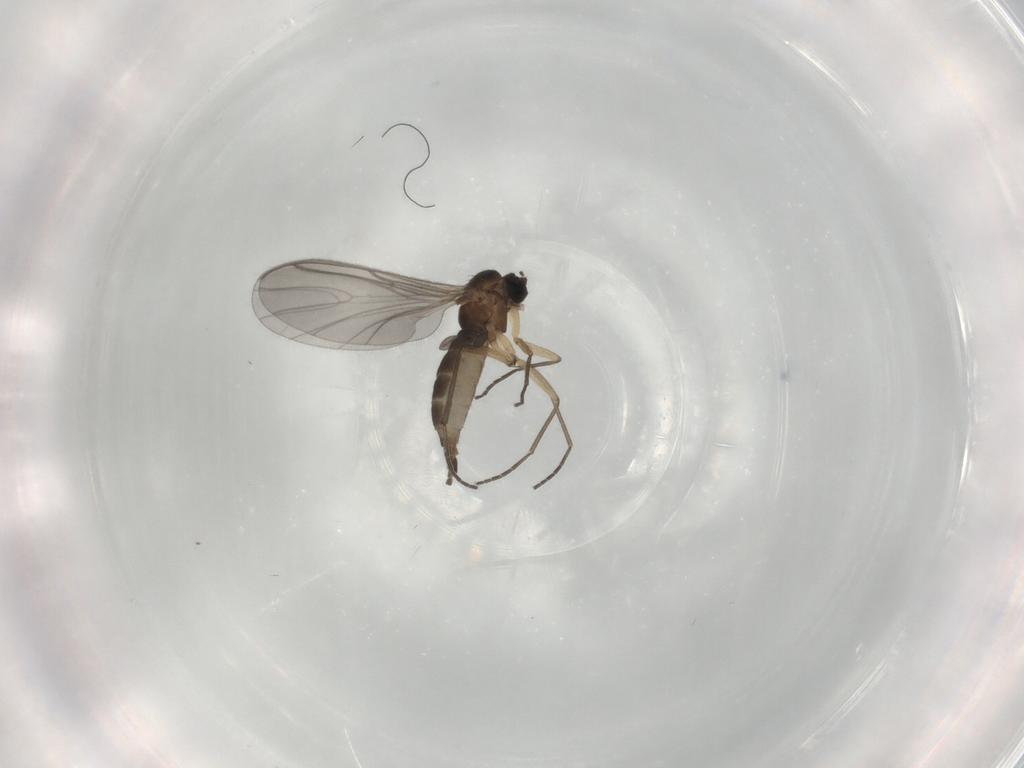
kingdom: Animalia
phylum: Arthropoda
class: Insecta
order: Diptera
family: Sciaridae
